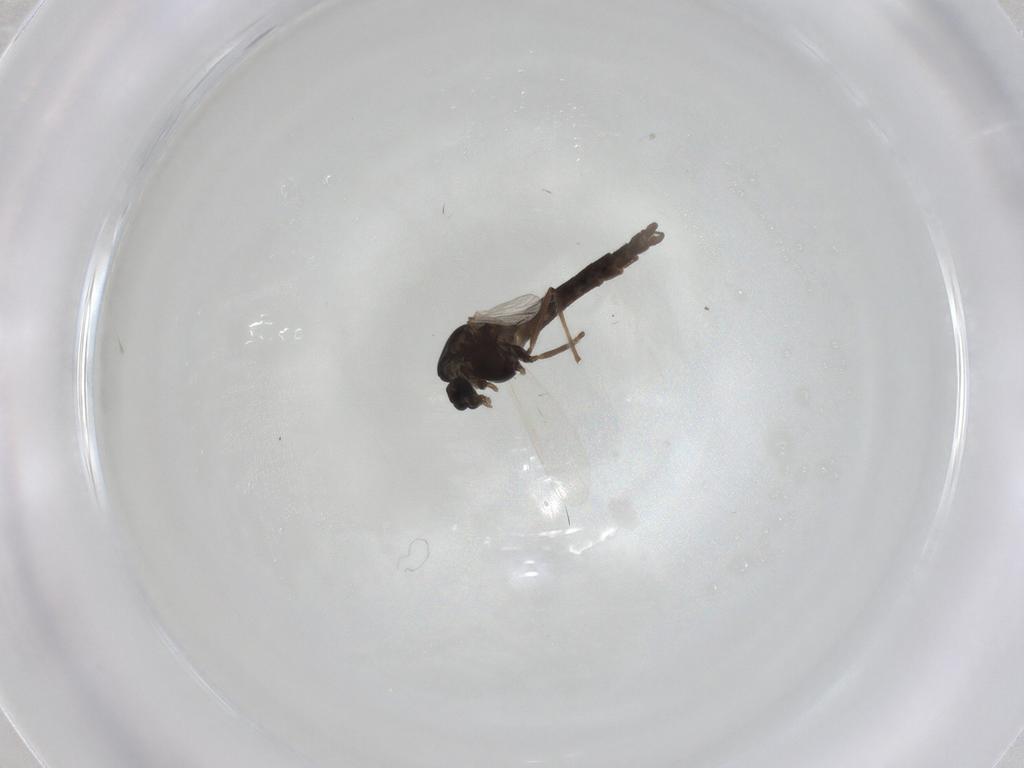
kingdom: Animalia
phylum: Arthropoda
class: Insecta
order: Diptera
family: Chironomidae
